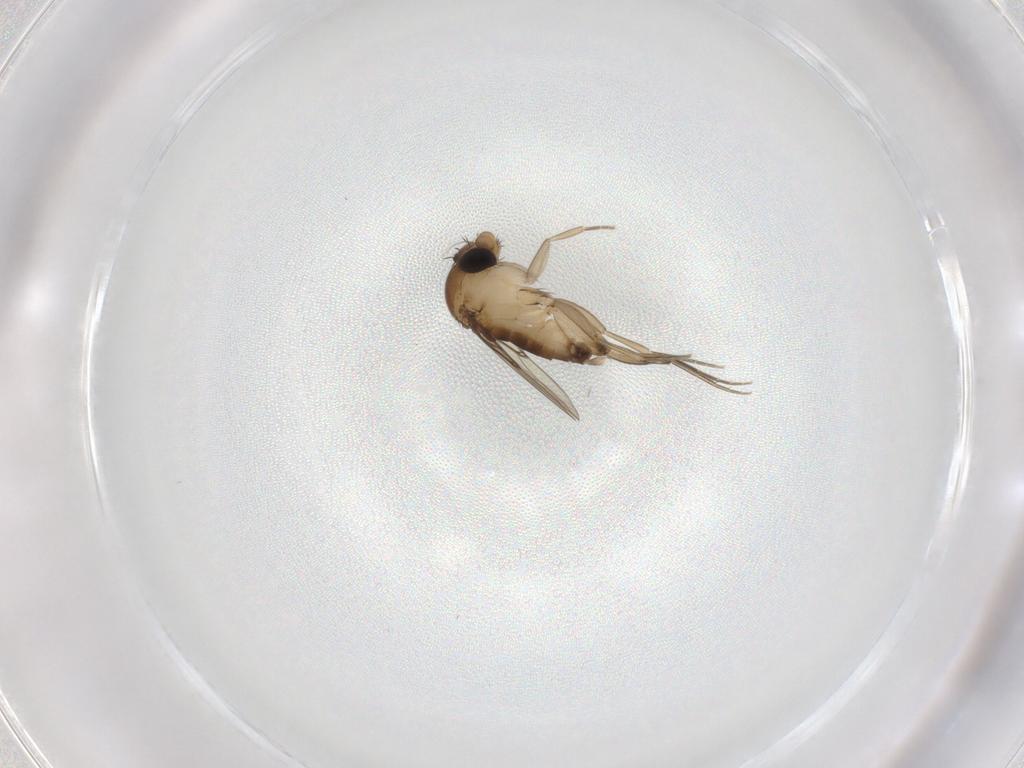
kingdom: Animalia
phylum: Arthropoda
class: Insecta
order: Diptera
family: Phoridae
